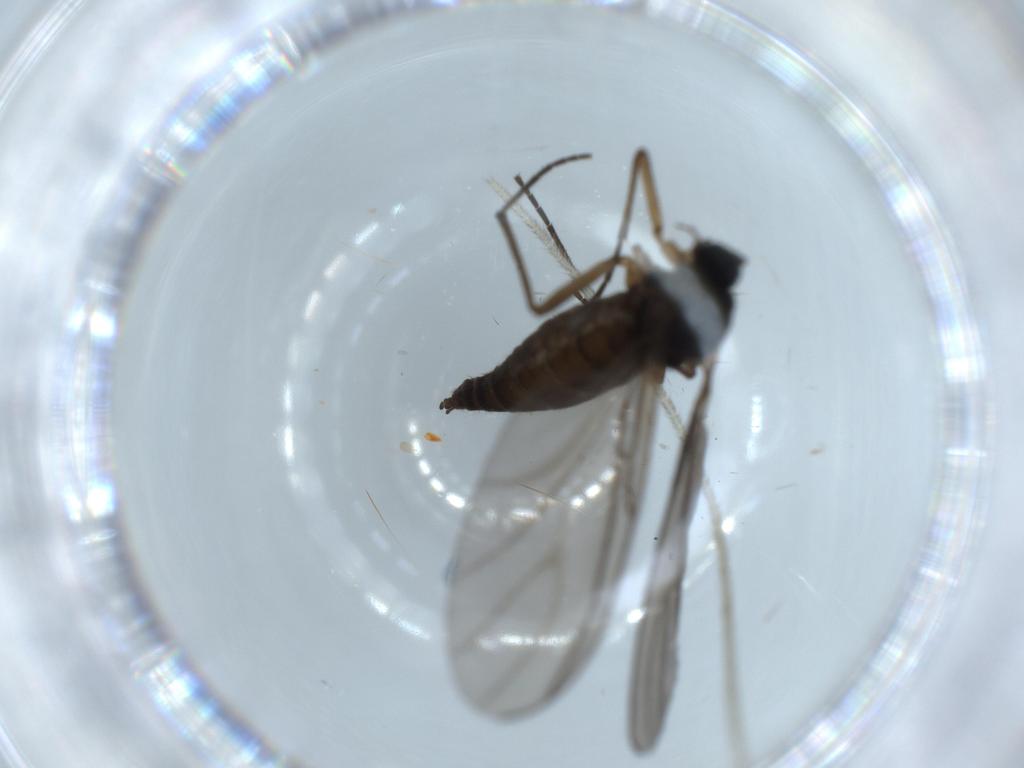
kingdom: Animalia
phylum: Arthropoda
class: Insecta
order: Diptera
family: Sciaridae
